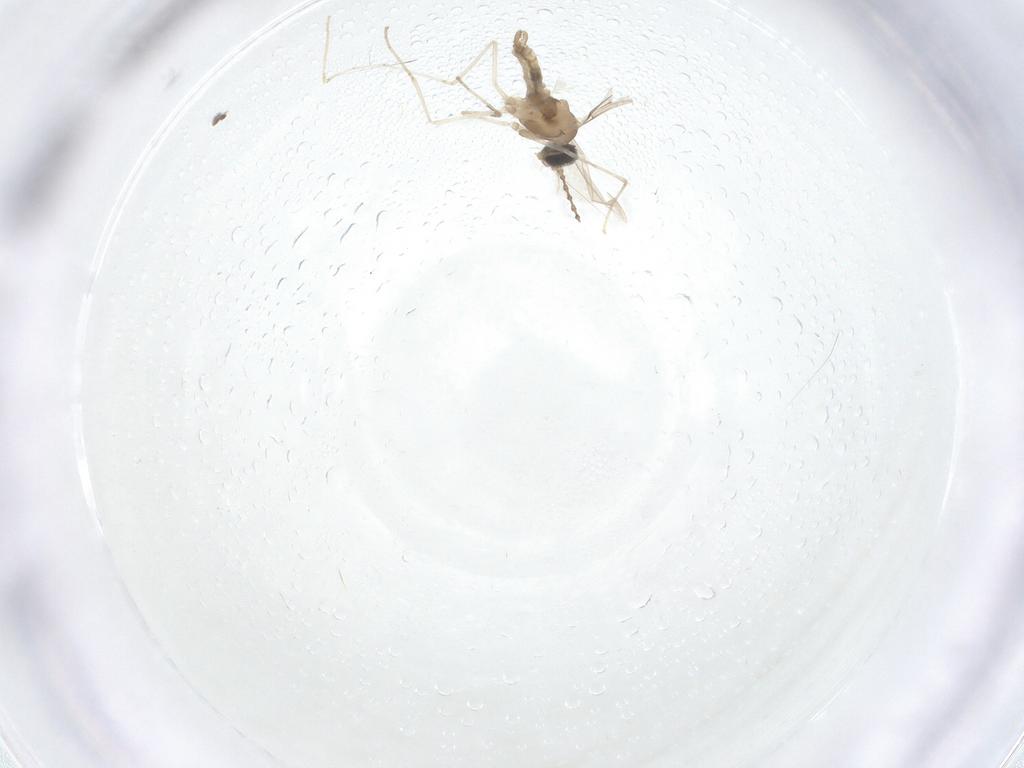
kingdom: Animalia
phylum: Arthropoda
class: Insecta
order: Diptera
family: Cecidomyiidae
